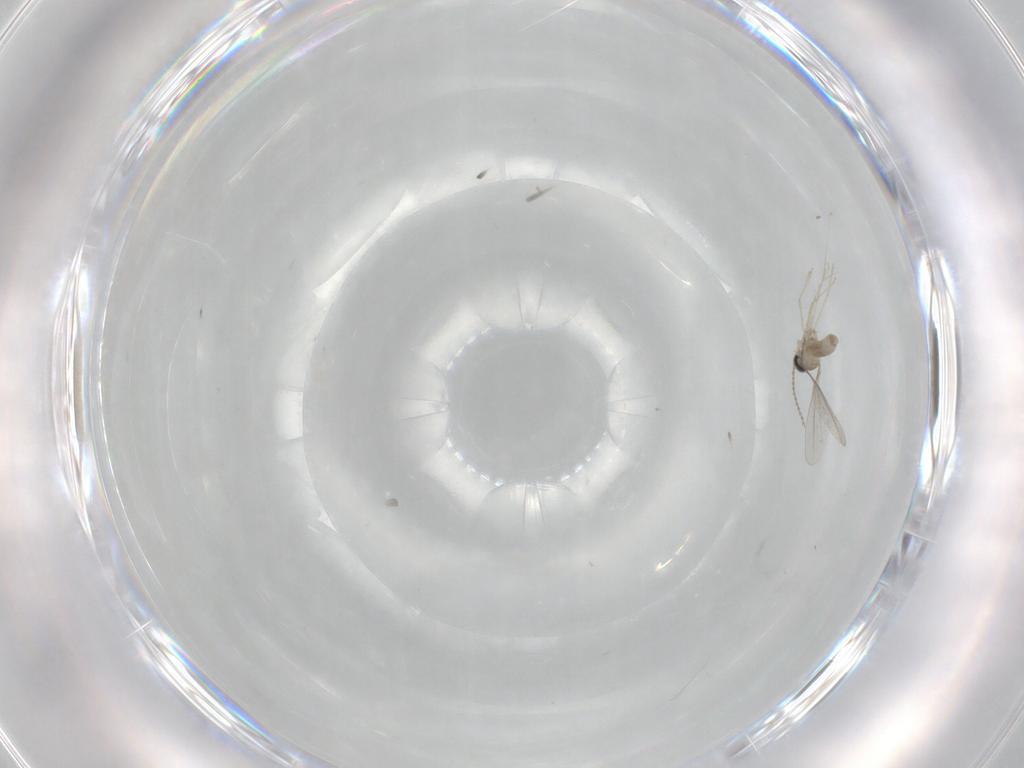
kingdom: Animalia
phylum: Arthropoda
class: Insecta
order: Diptera
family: Cecidomyiidae
